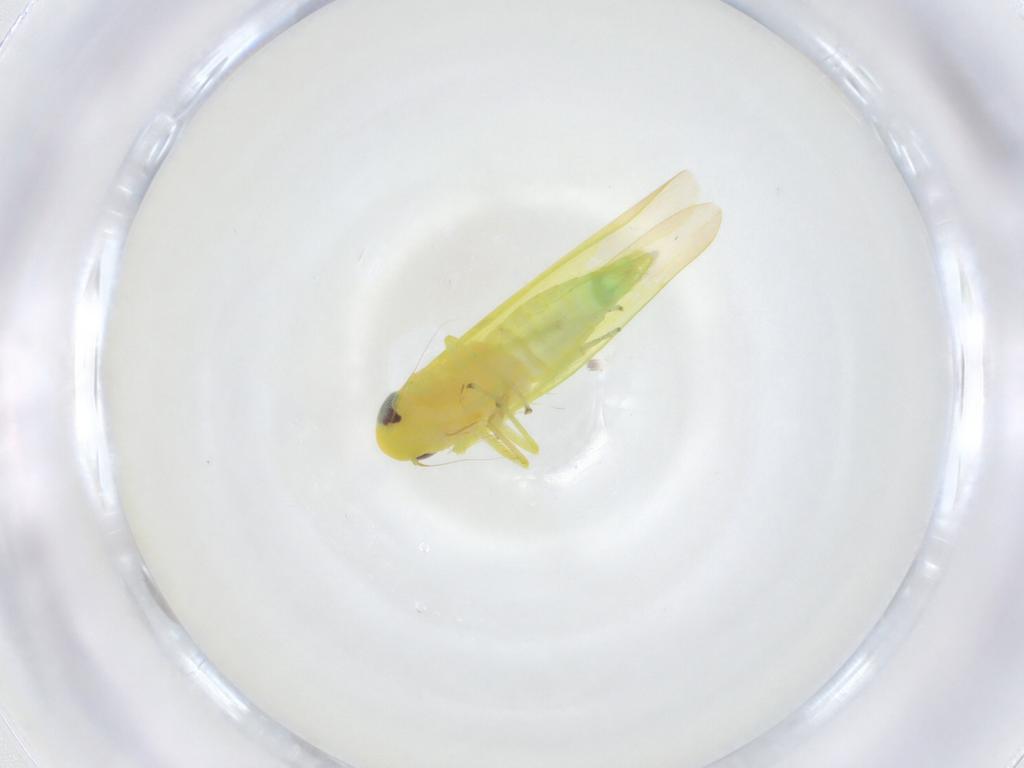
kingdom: Animalia
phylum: Arthropoda
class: Insecta
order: Hemiptera
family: Cicadellidae
